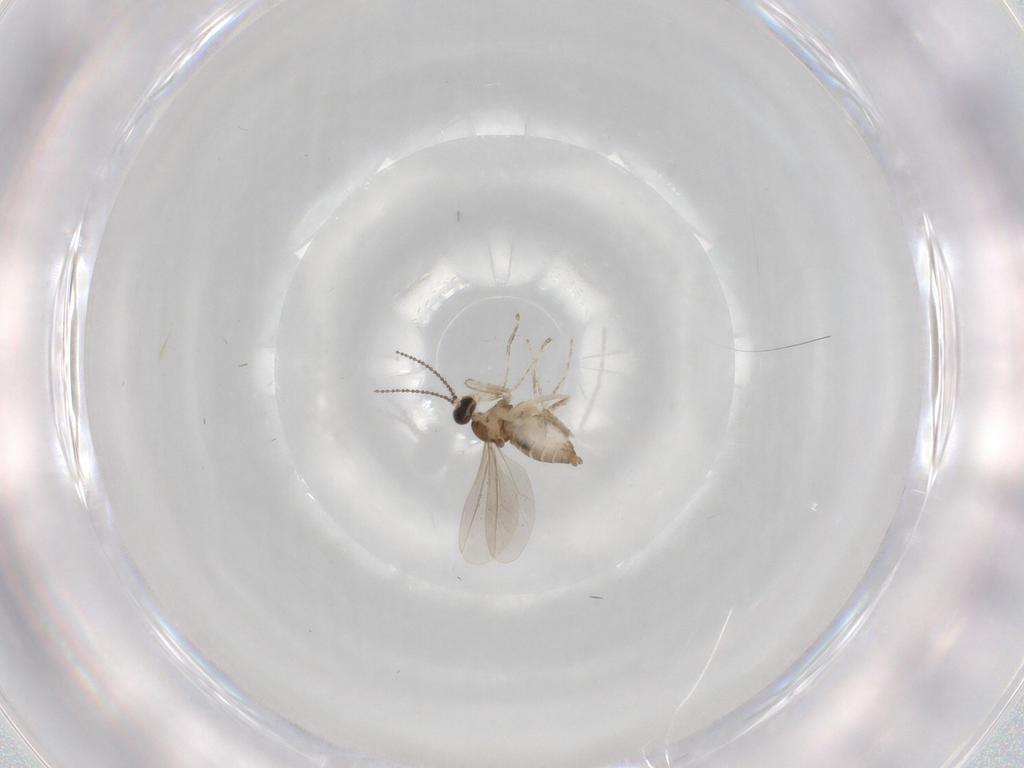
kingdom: Animalia
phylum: Arthropoda
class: Insecta
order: Diptera
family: Cecidomyiidae
